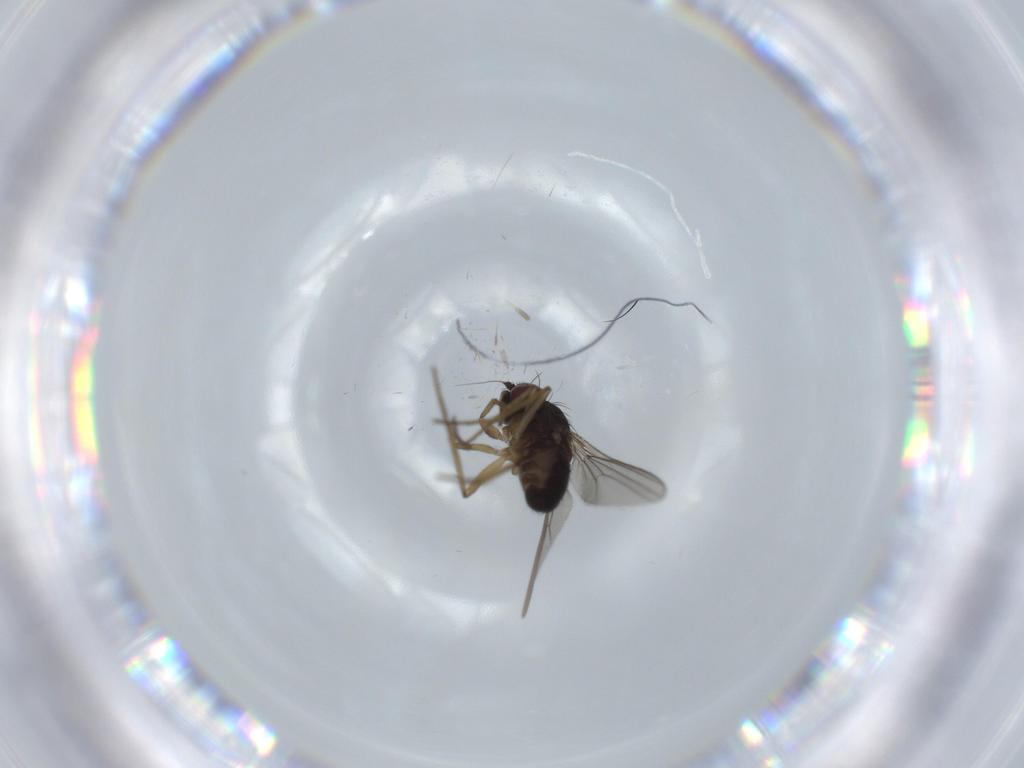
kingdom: Animalia
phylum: Arthropoda
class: Insecta
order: Diptera
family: Dolichopodidae
